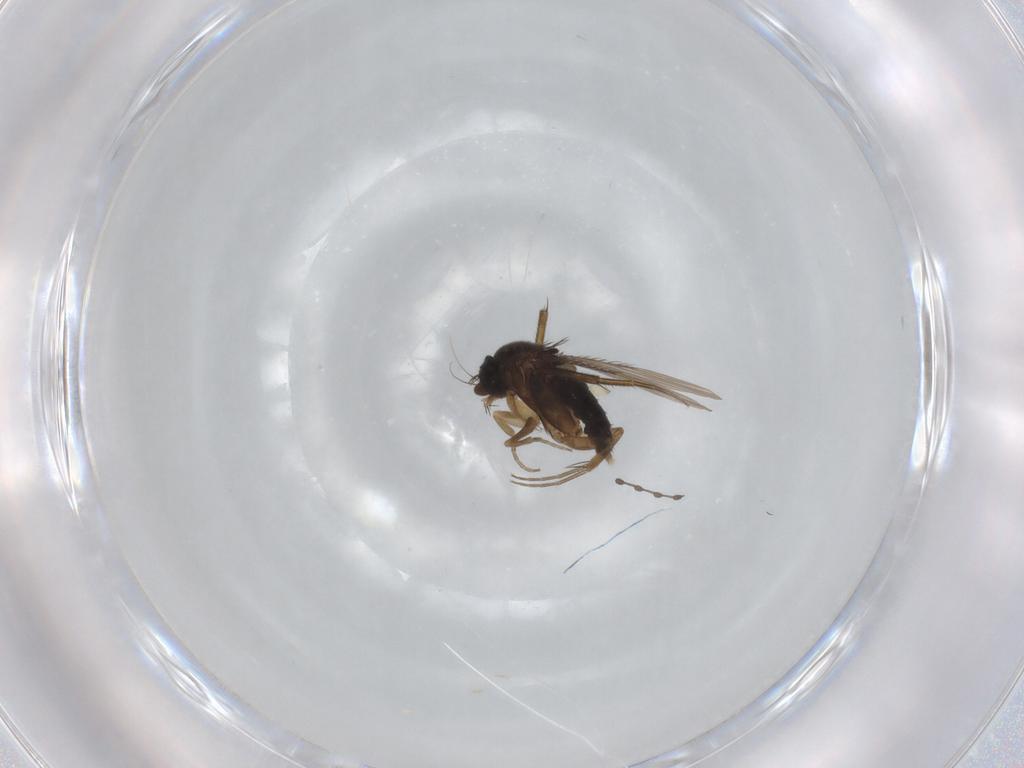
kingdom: Animalia
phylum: Arthropoda
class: Insecta
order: Diptera
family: Phoridae
